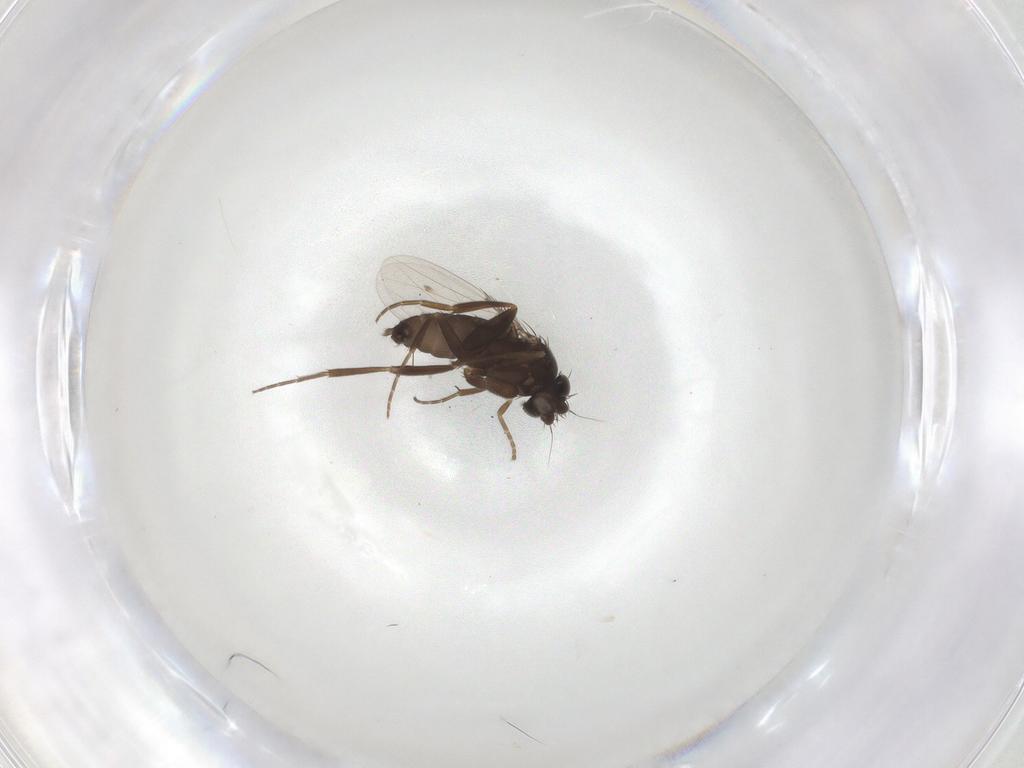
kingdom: Animalia
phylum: Arthropoda
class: Insecta
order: Diptera
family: Phoridae
